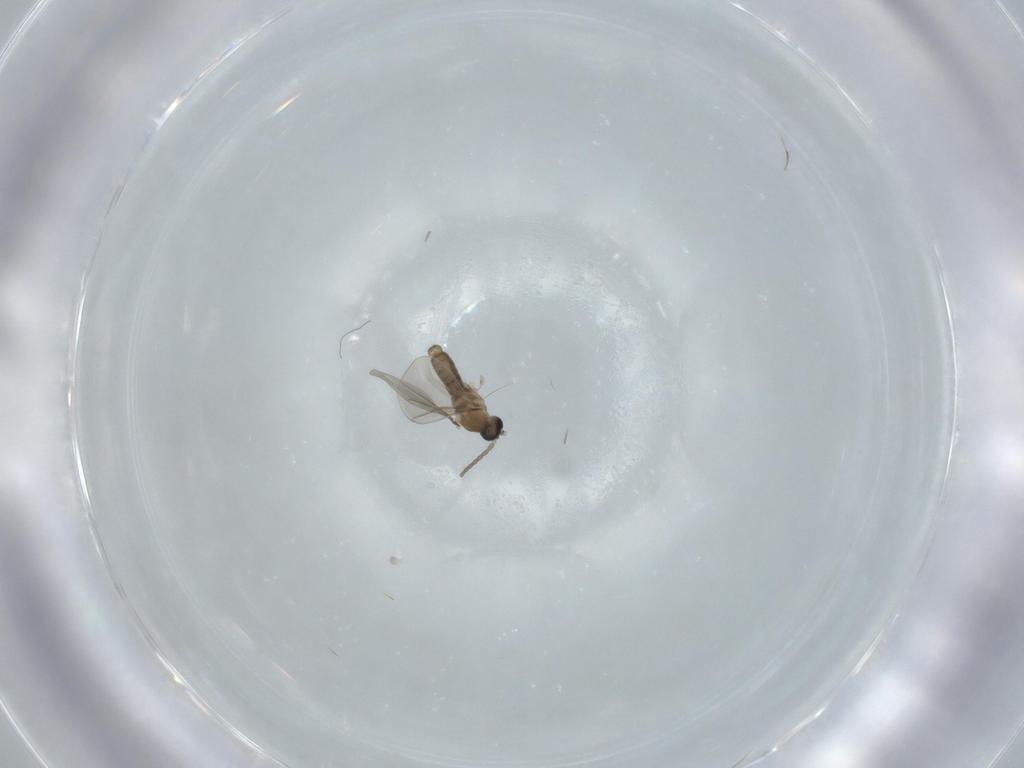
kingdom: Animalia
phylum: Arthropoda
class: Insecta
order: Diptera
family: Cecidomyiidae
